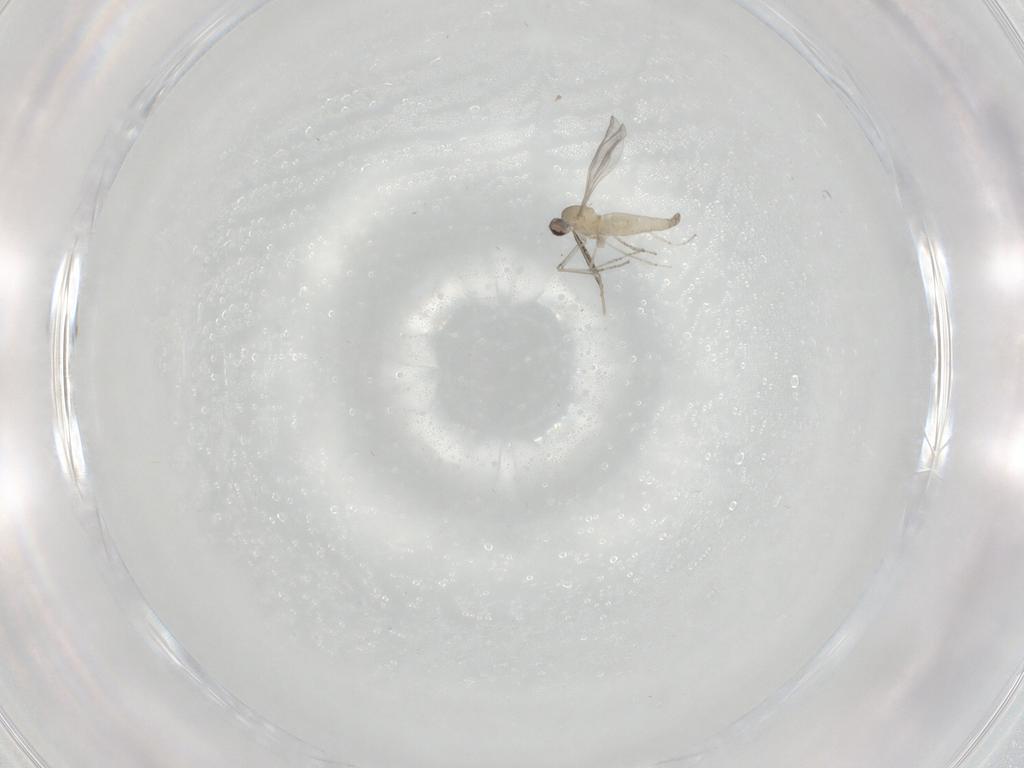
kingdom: Animalia
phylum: Arthropoda
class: Insecta
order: Diptera
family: Cecidomyiidae
